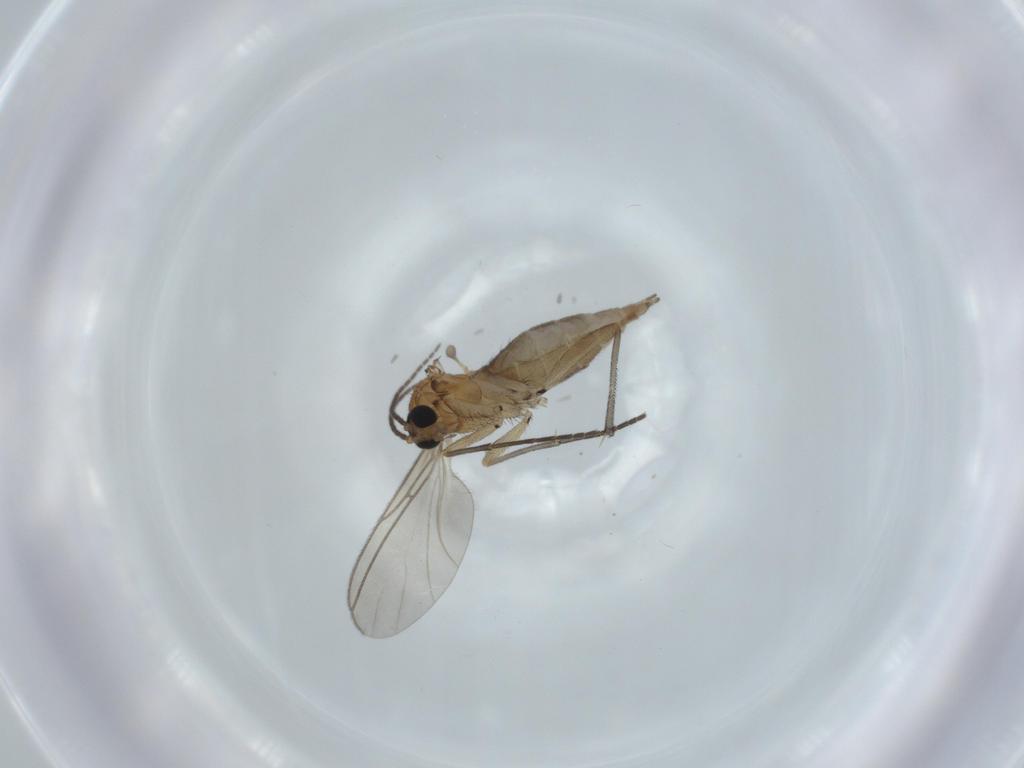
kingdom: Animalia
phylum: Arthropoda
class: Insecta
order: Diptera
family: Sciaridae
